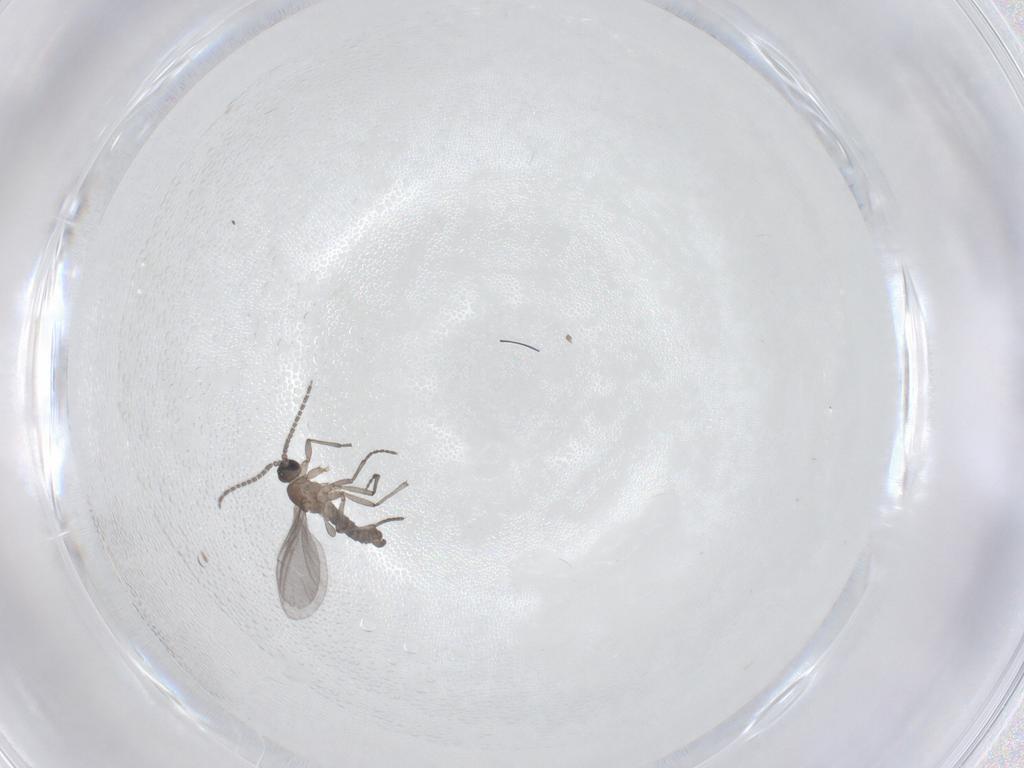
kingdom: Animalia
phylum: Arthropoda
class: Insecta
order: Diptera
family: Sciaridae
